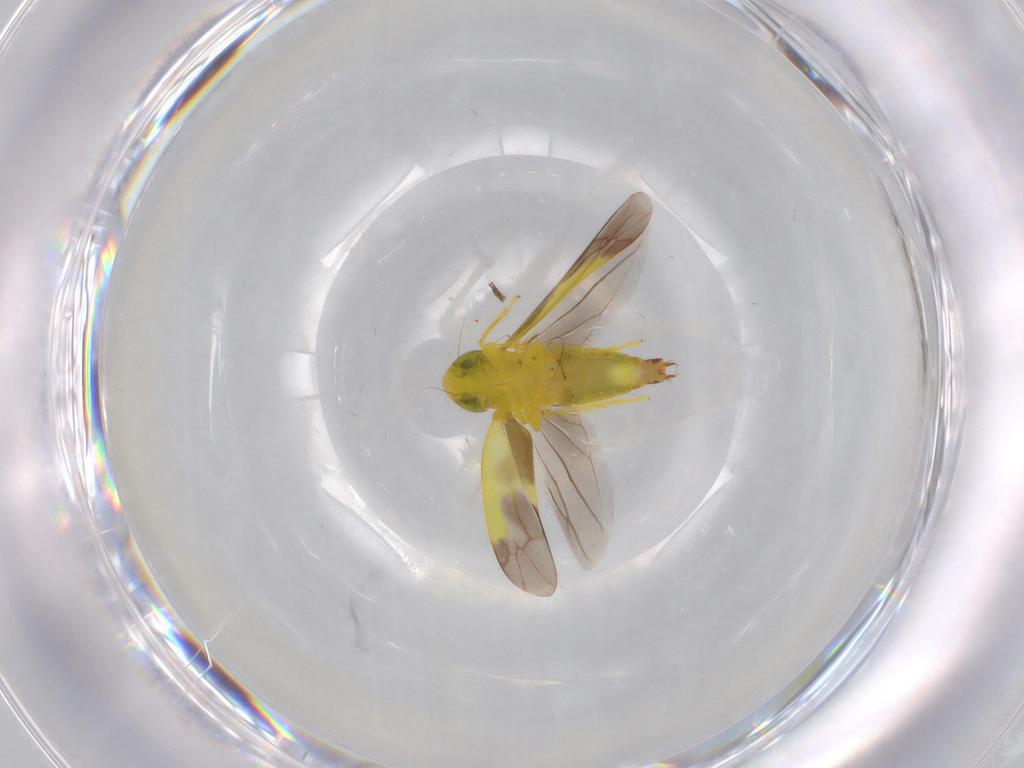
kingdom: Animalia
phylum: Arthropoda
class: Insecta
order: Hemiptera
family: Cicadellidae
